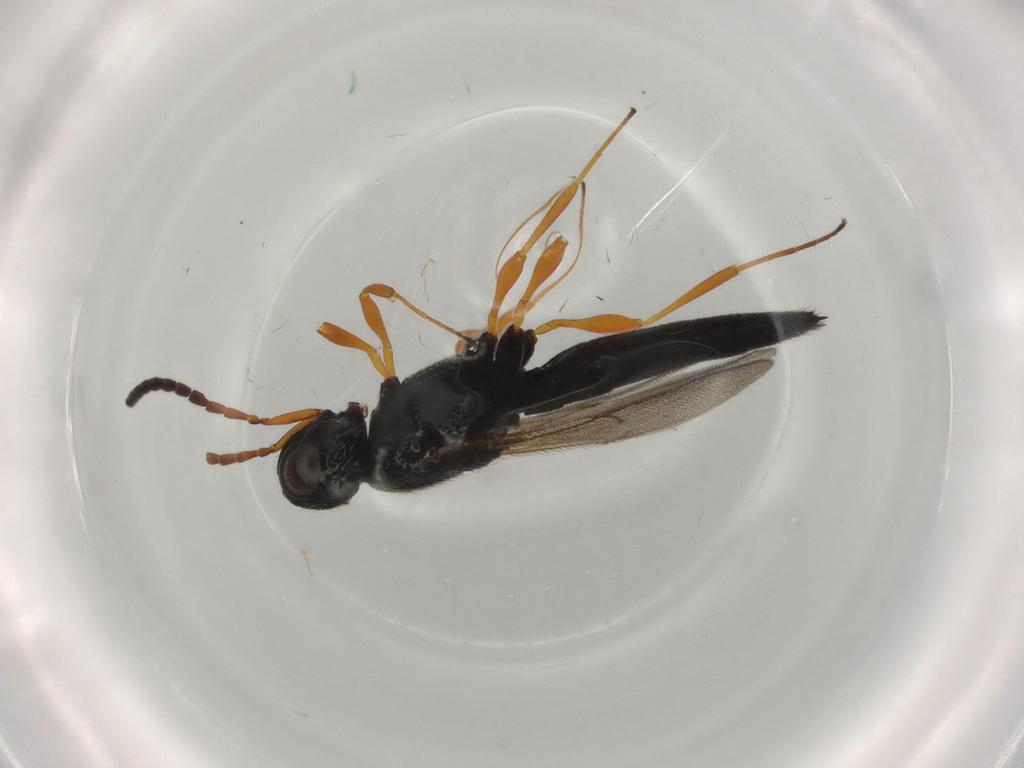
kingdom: Animalia
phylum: Arthropoda
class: Insecta
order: Hymenoptera
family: Scelionidae
